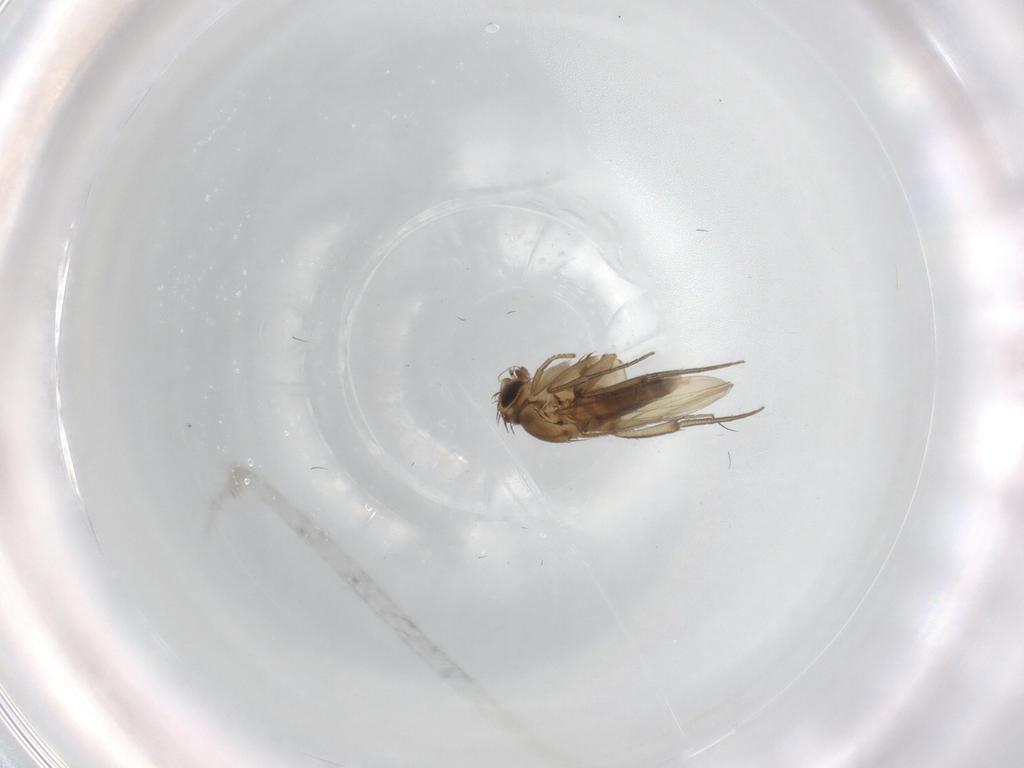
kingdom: Animalia
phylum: Arthropoda
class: Insecta
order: Diptera
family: Phoridae
